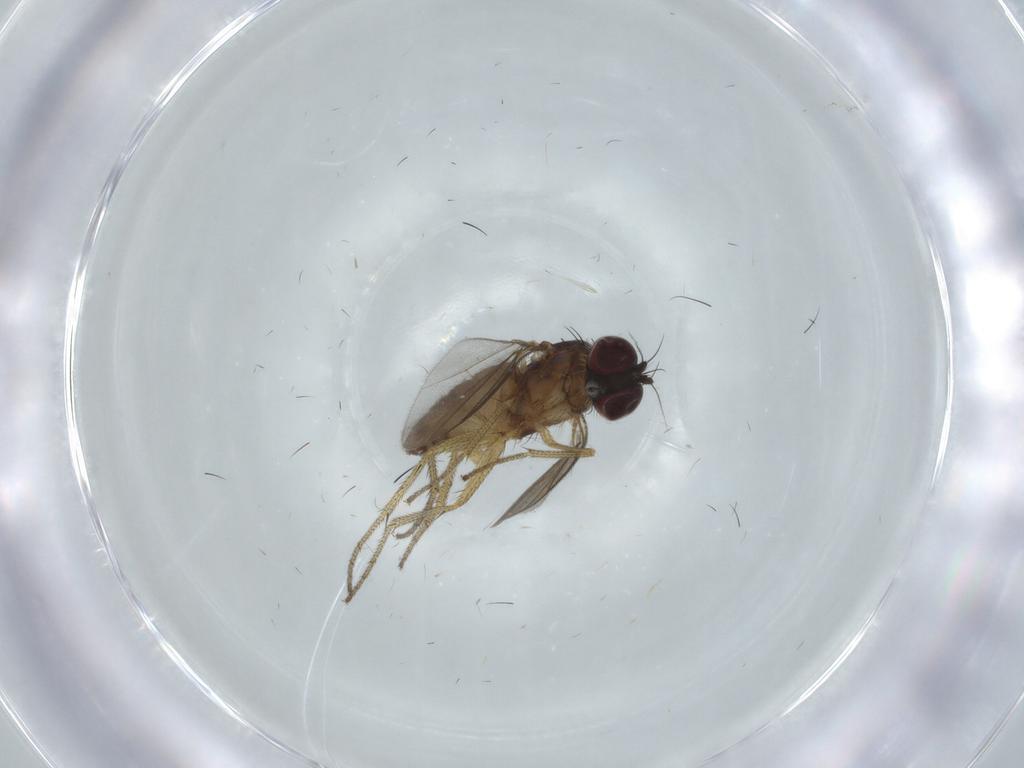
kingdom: Animalia
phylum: Arthropoda
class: Insecta
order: Diptera
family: Dolichopodidae
